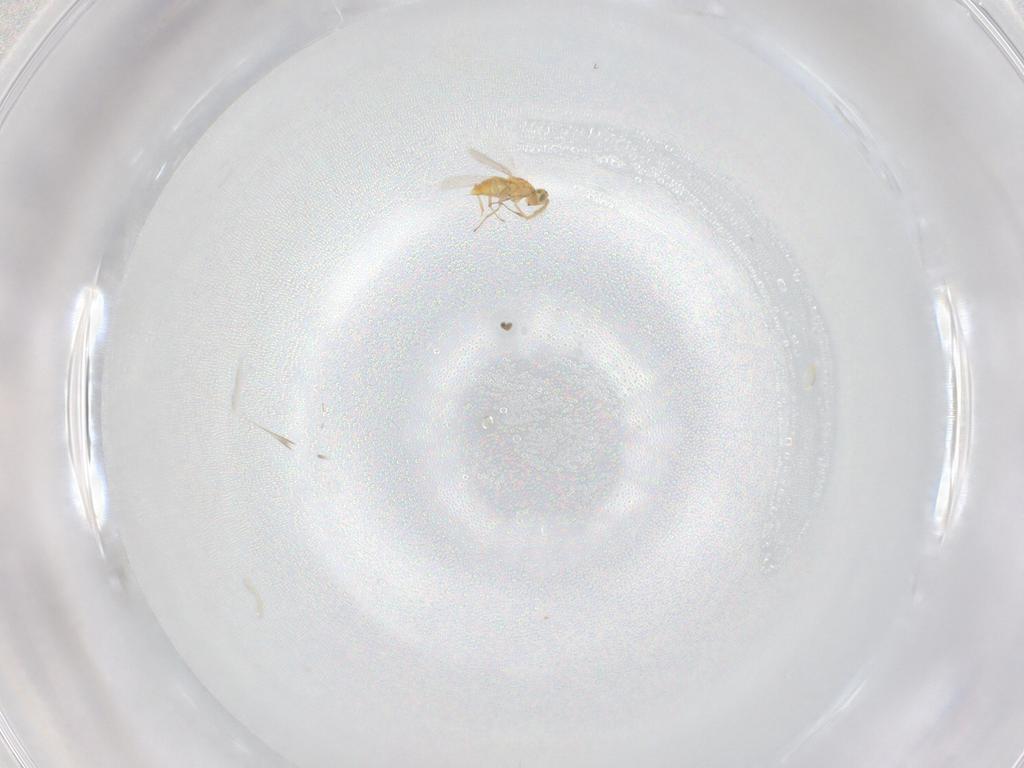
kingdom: Animalia
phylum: Arthropoda
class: Insecta
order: Hymenoptera
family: Aphelinidae
